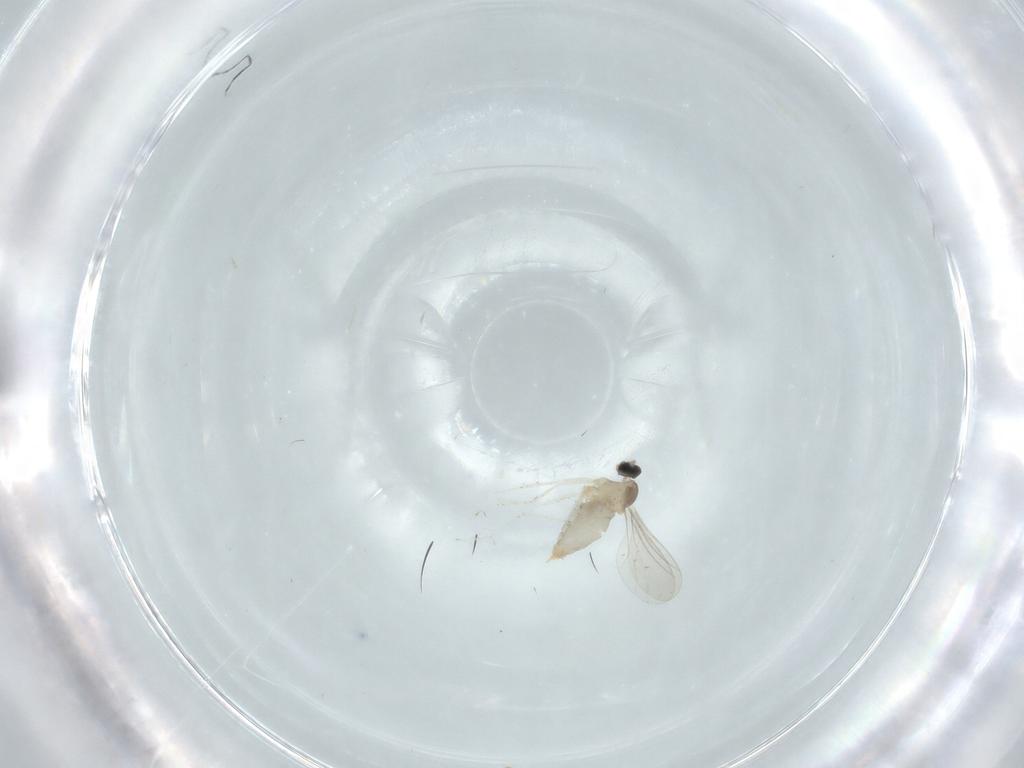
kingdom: Animalia
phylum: Arthropoda
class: Insecta
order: Diptera
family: Cecidomyiidae
